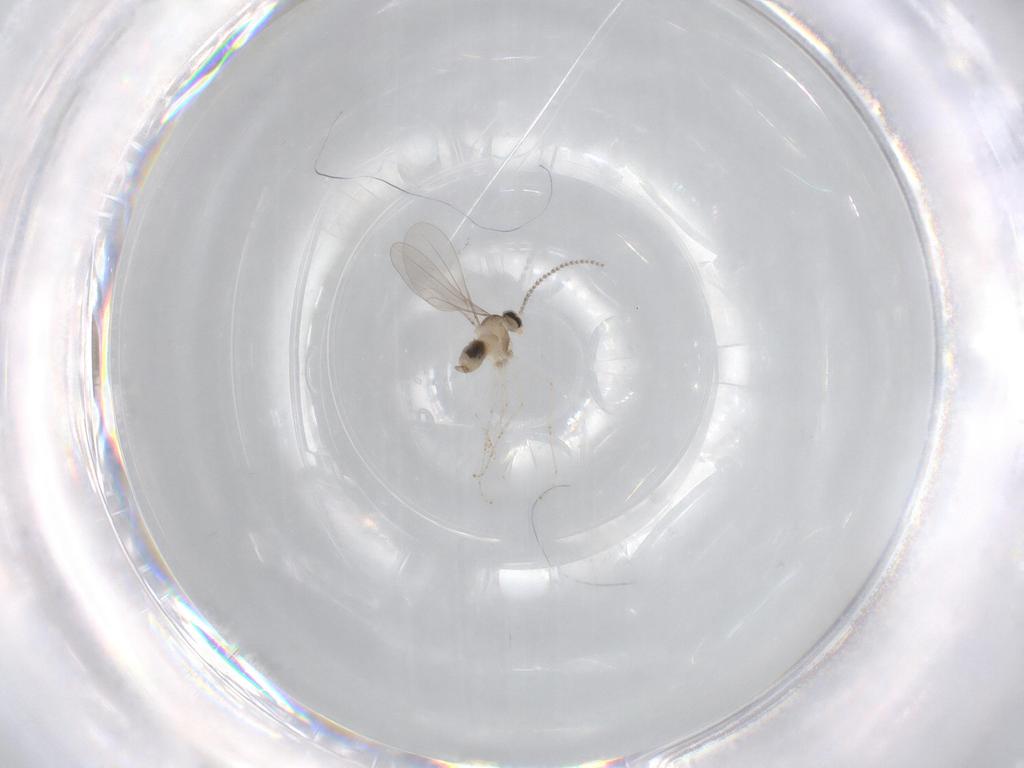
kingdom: Animalia
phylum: Arthropoda
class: Insecta
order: Diptera
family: Cecidomyiidae
